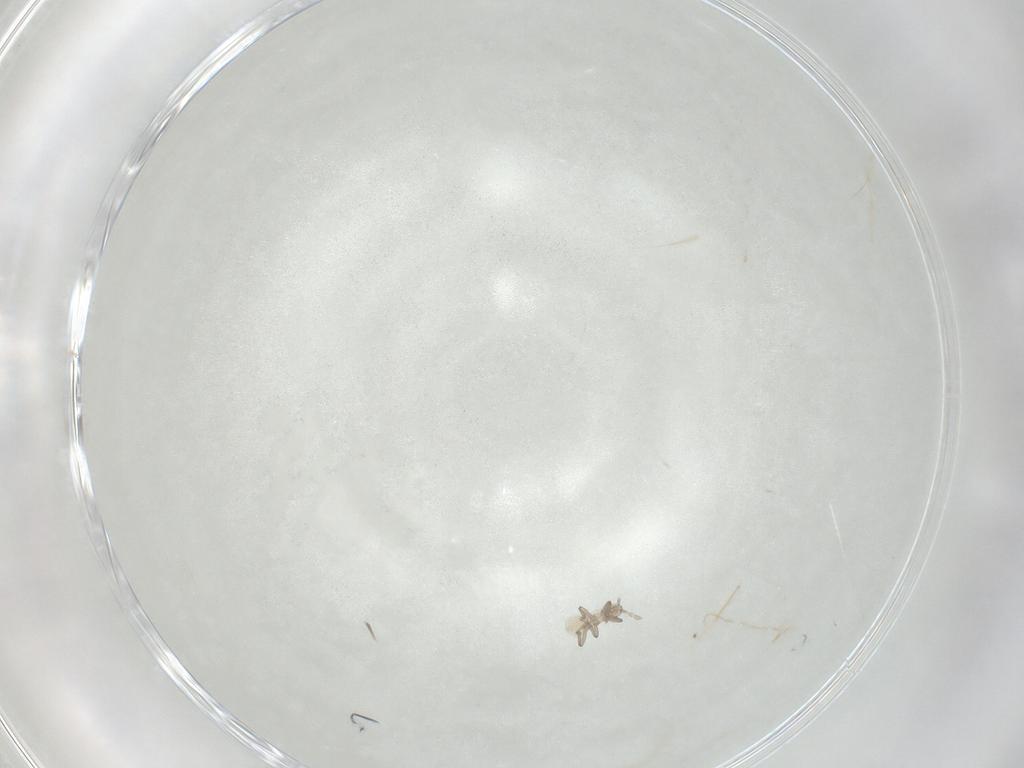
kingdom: Animalia
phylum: Arthropoda
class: Insecta
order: Hemiptera
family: Aphididae
